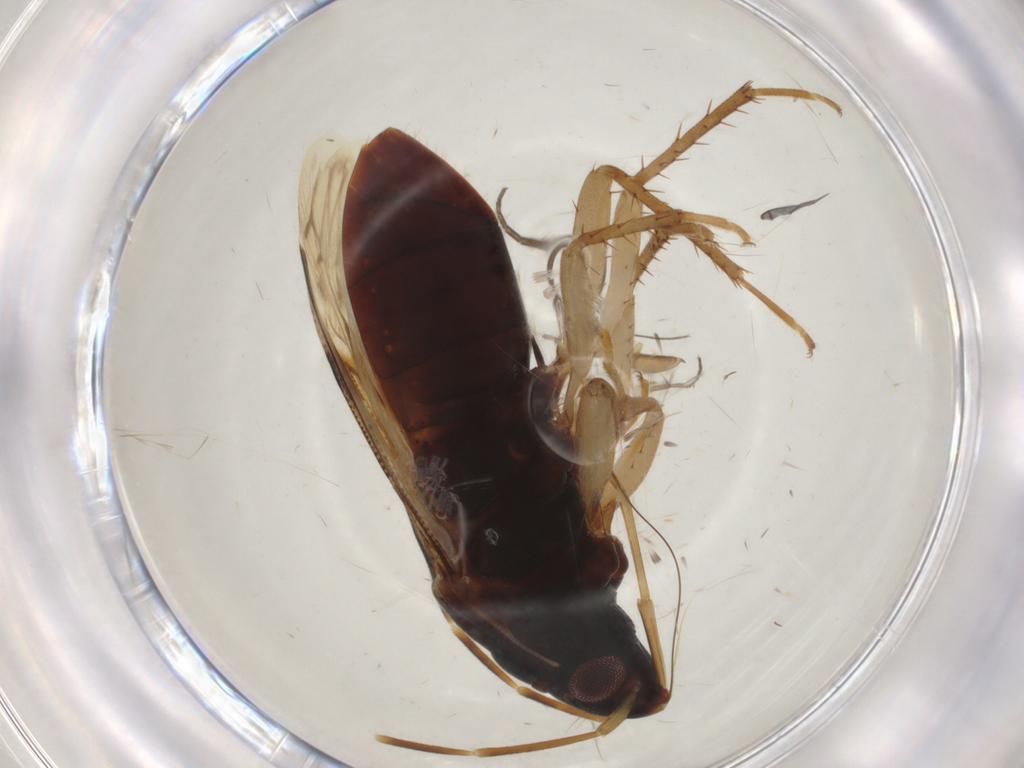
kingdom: Animalia
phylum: Arthropoda
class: Insecta
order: Hemiptera
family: Rhyparochromidae
